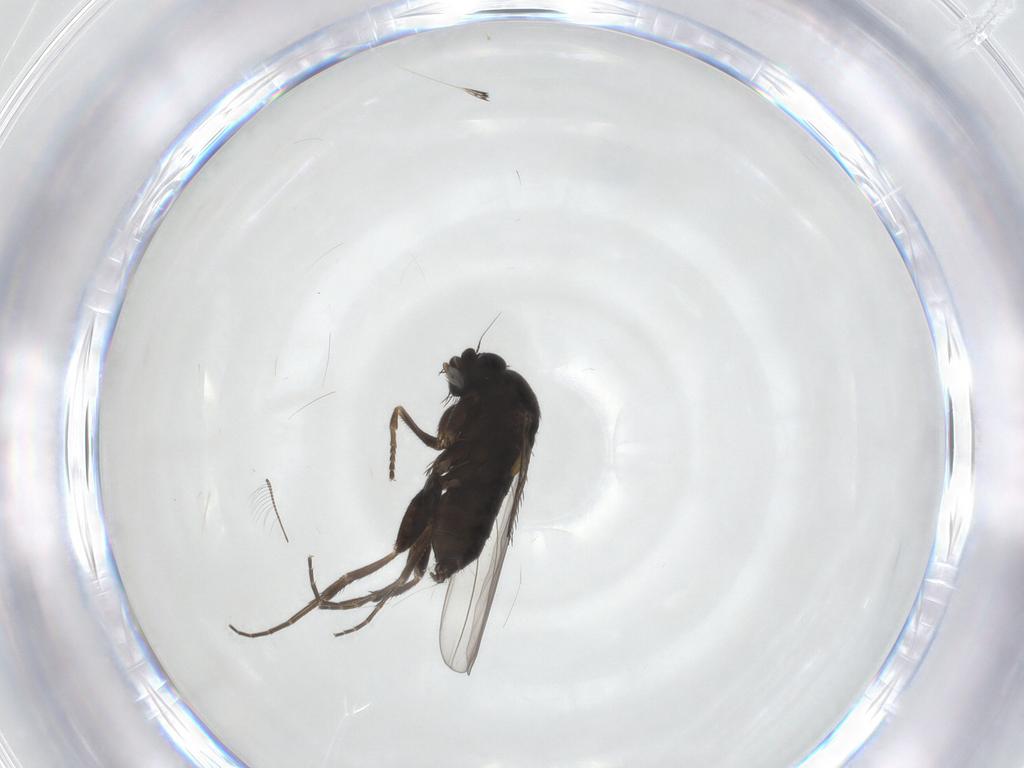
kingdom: Animalia
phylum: Arthropoda
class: Insecta
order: Diptera
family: Phoridae
